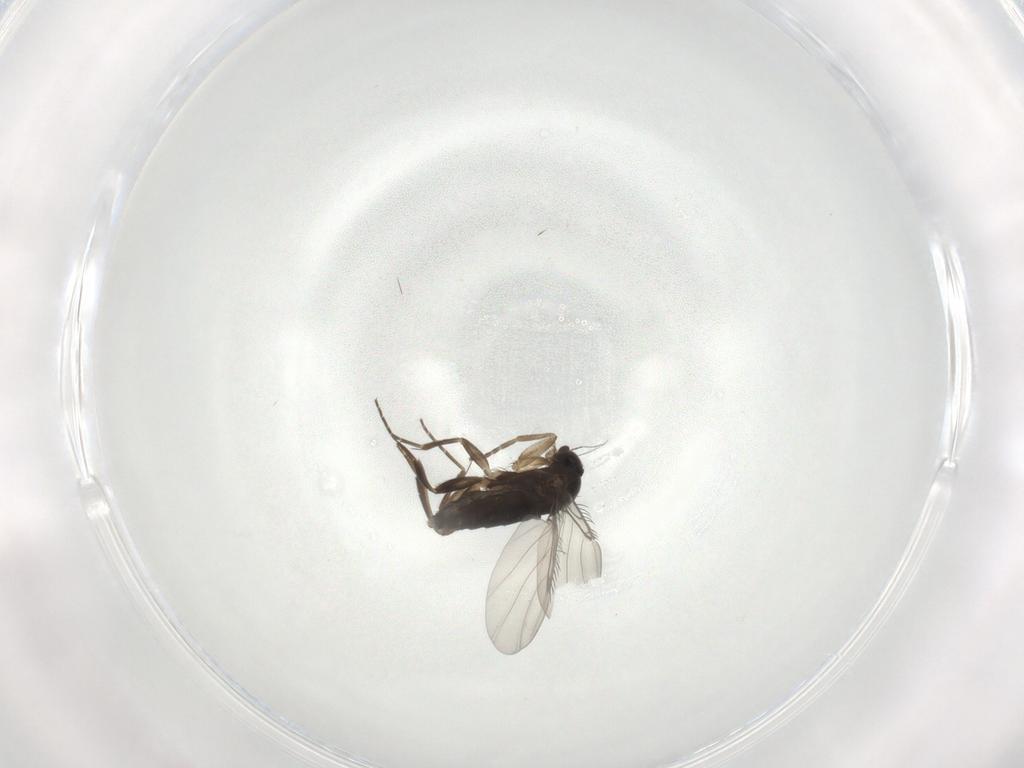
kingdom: Animalia
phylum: Arthropoda
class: Insecta
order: Diptera
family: Phoridae
